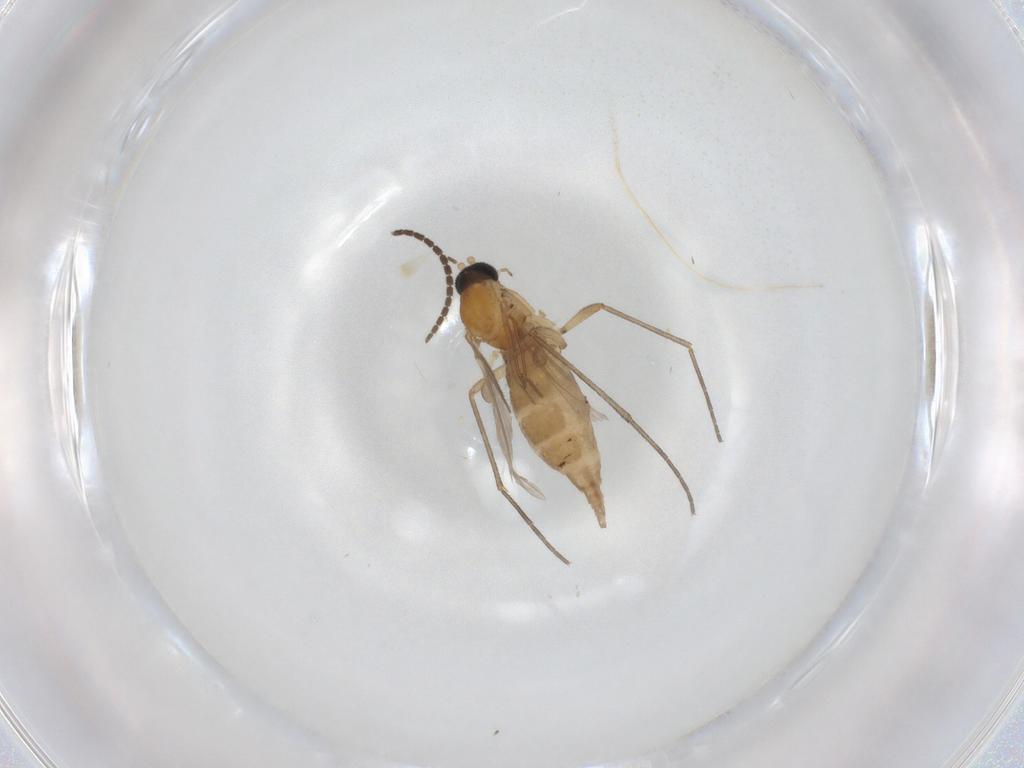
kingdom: Animalia
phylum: Arthropoda
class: Insecta
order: Diptera
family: Sciaridae
